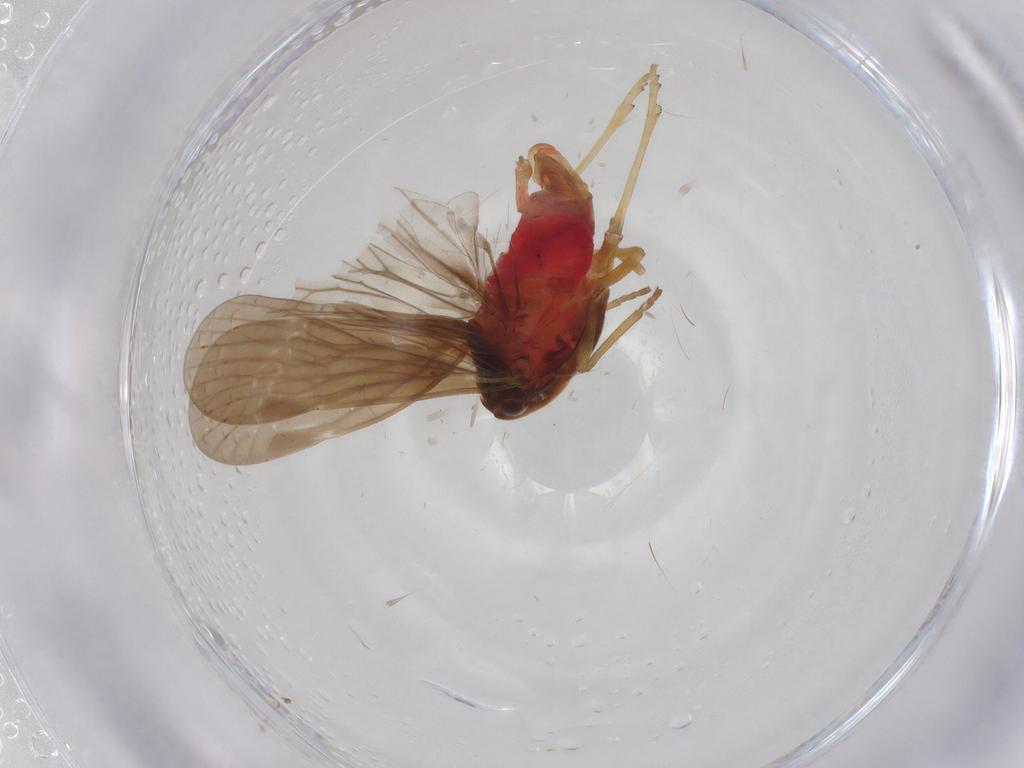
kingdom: Animalia
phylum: Arthropoda
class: Insecta
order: Hemiptera
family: Derbidae
